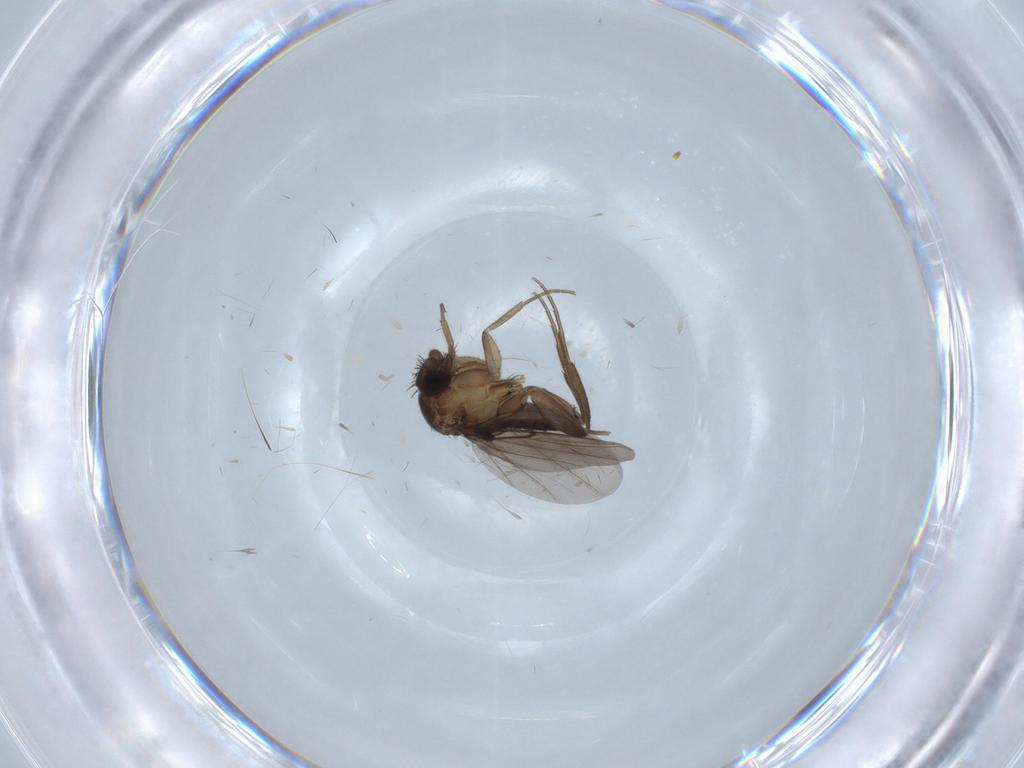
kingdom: Animalia
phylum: Arthropoda
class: Insecta
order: Diptera
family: Phoridae
